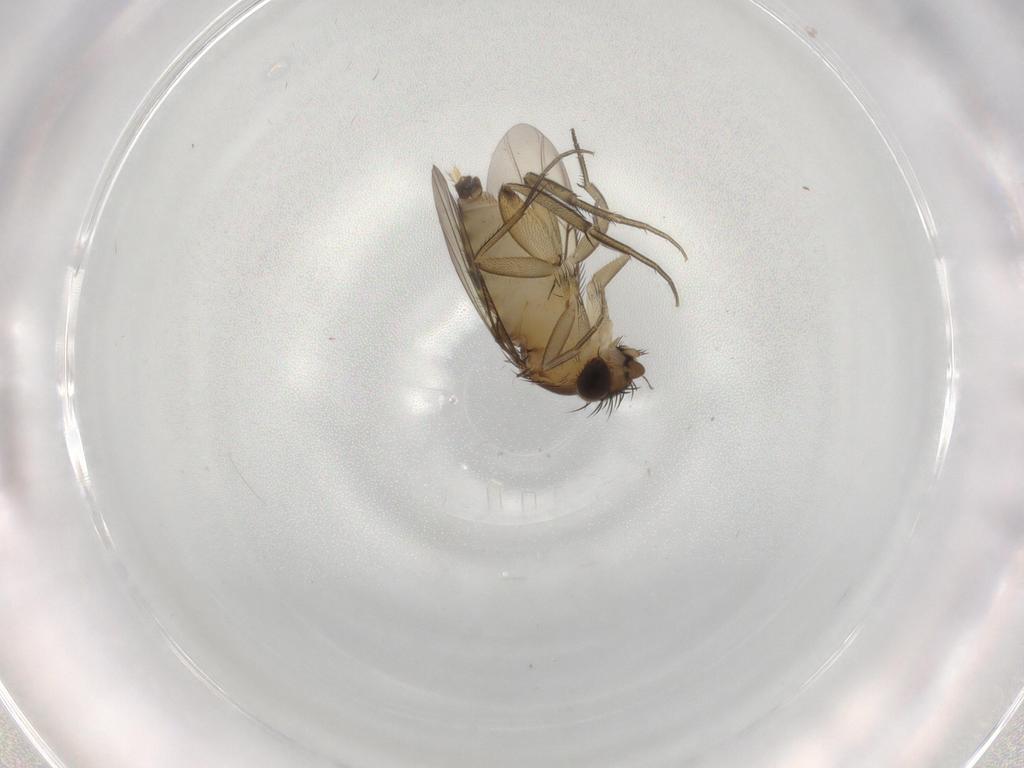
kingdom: Animalia
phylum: Arthropoda
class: Insecta
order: Diptera
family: Phoridae
